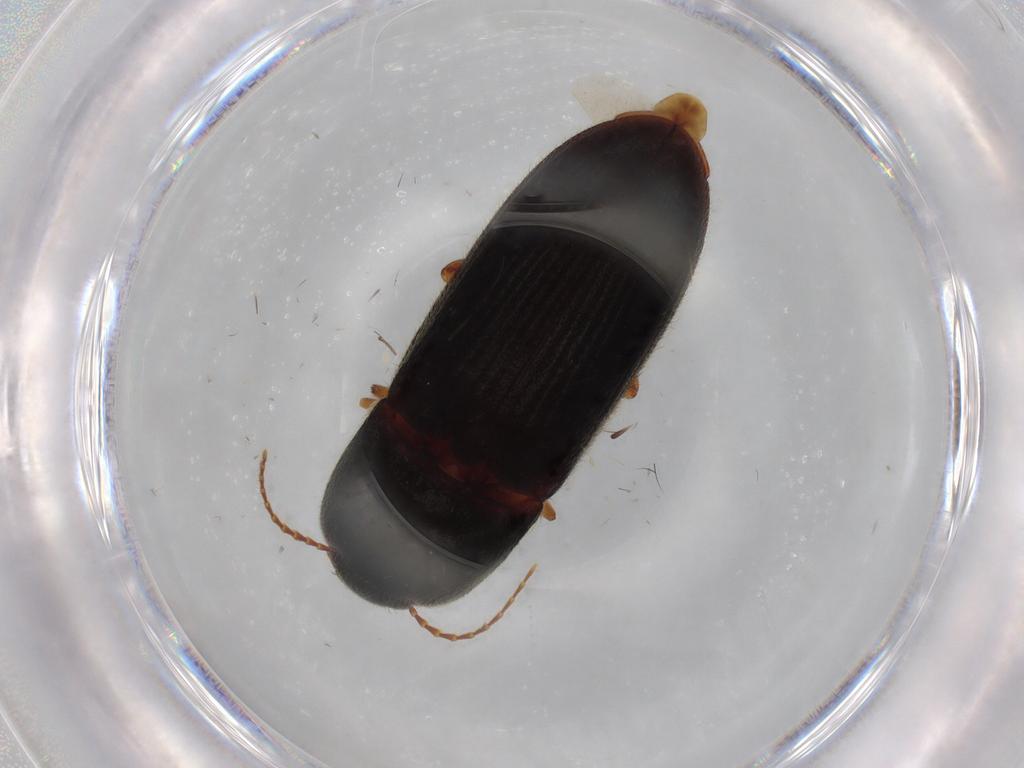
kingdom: Animalia
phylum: Arthropoda
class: Insecta
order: Coleoptera
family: Elateridae
